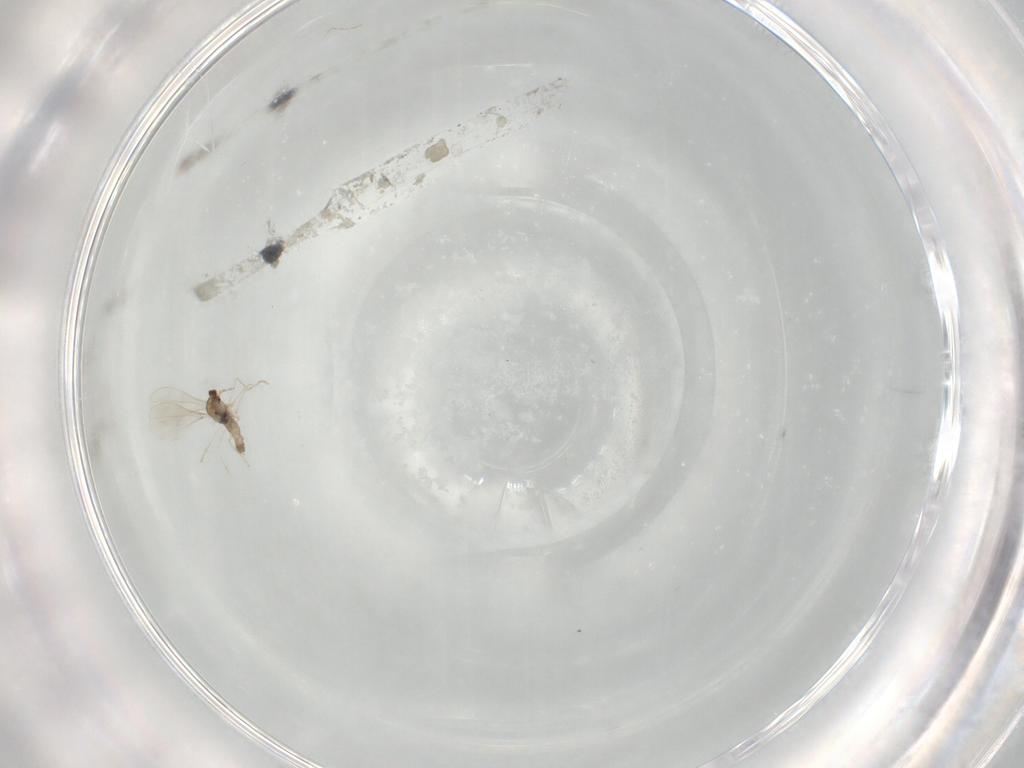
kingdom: Animalia
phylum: Arthropoda
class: Insecta
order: Diptera
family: Cecidomyiidae
